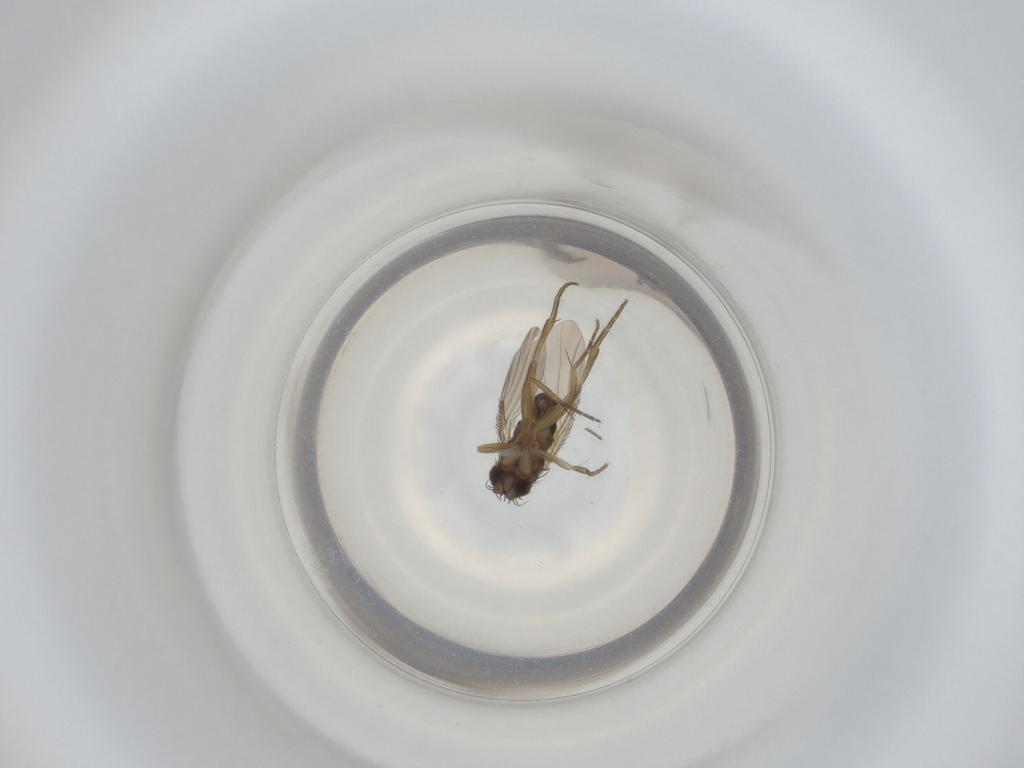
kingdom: Animalia
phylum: Arthropoda
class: Insecta
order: Diptera
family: Phoridae
